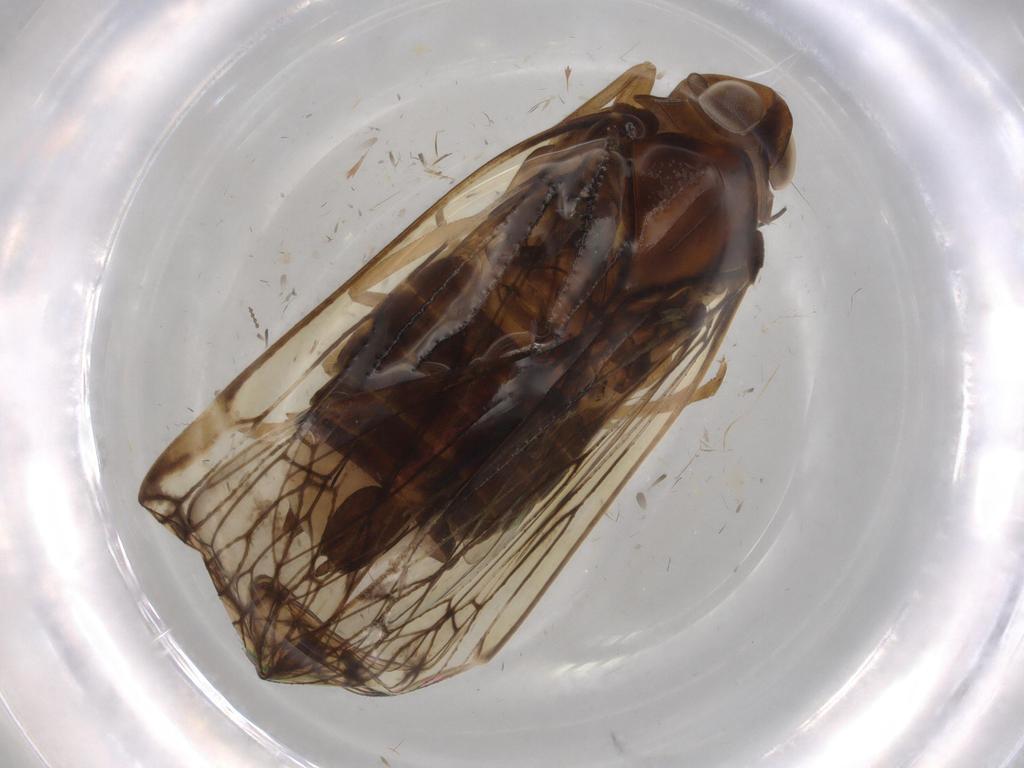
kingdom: Animalia
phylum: Arthropoda
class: Insecta
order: Hemiptera
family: Cixiidae
